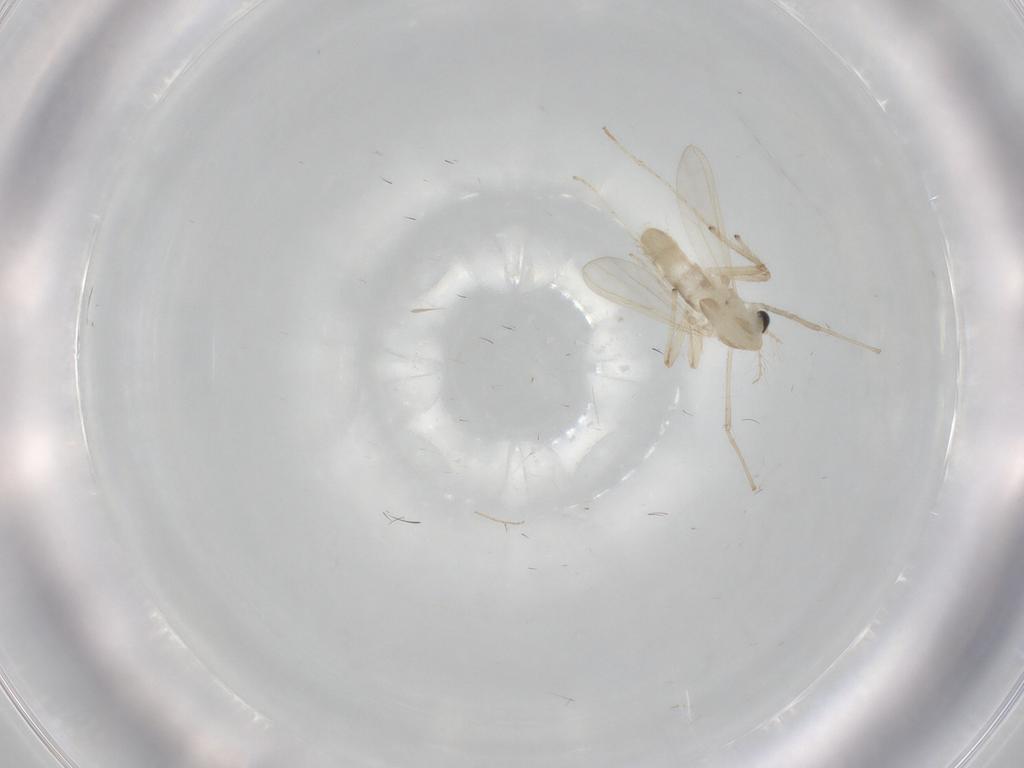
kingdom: Animalia
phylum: Arthropoda
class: Insecta
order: Diptera
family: Chironomidae
